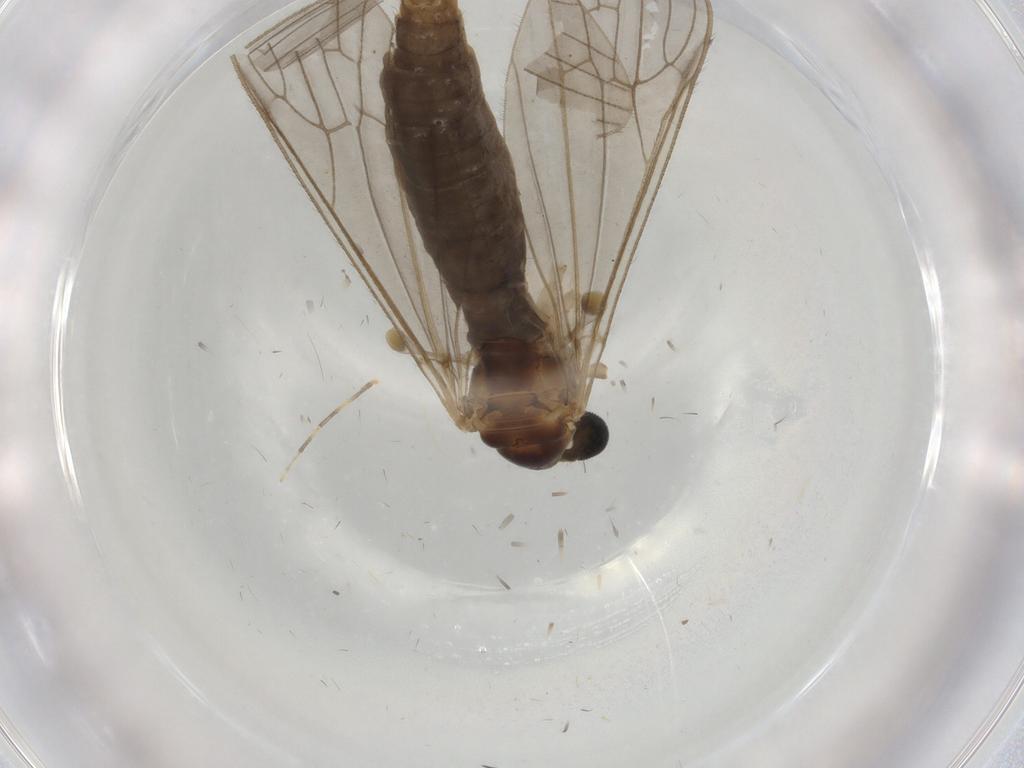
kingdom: Animalia
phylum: Arthropoda
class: Insecta
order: Diptera
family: Limoniidae
